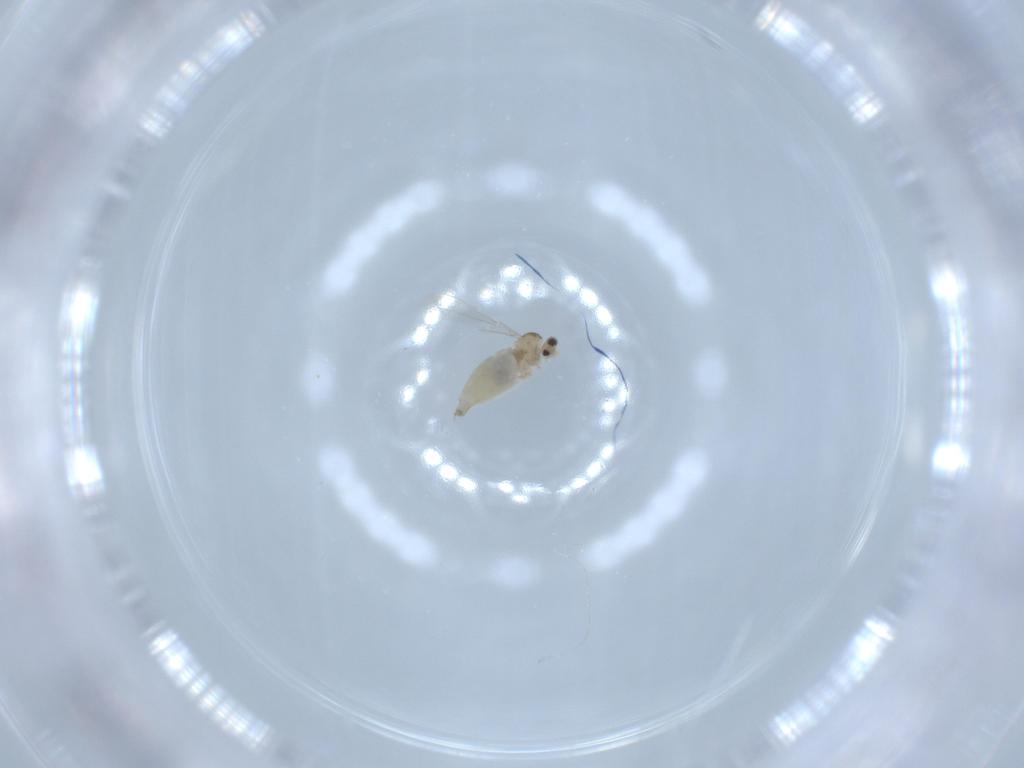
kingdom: Animalia
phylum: Arthropoda
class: Insecta
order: Diptera
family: Cecidomyiidae
